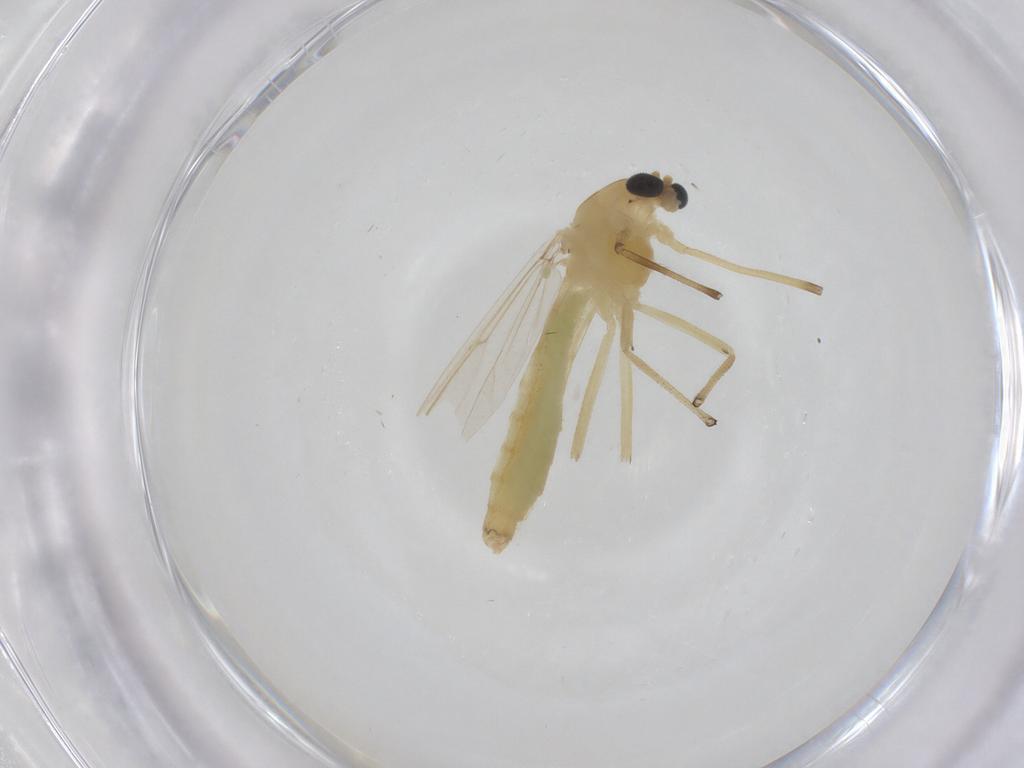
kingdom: Animalia
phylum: Arthropoda
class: Insecta
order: Diptera
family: Chironomidae
